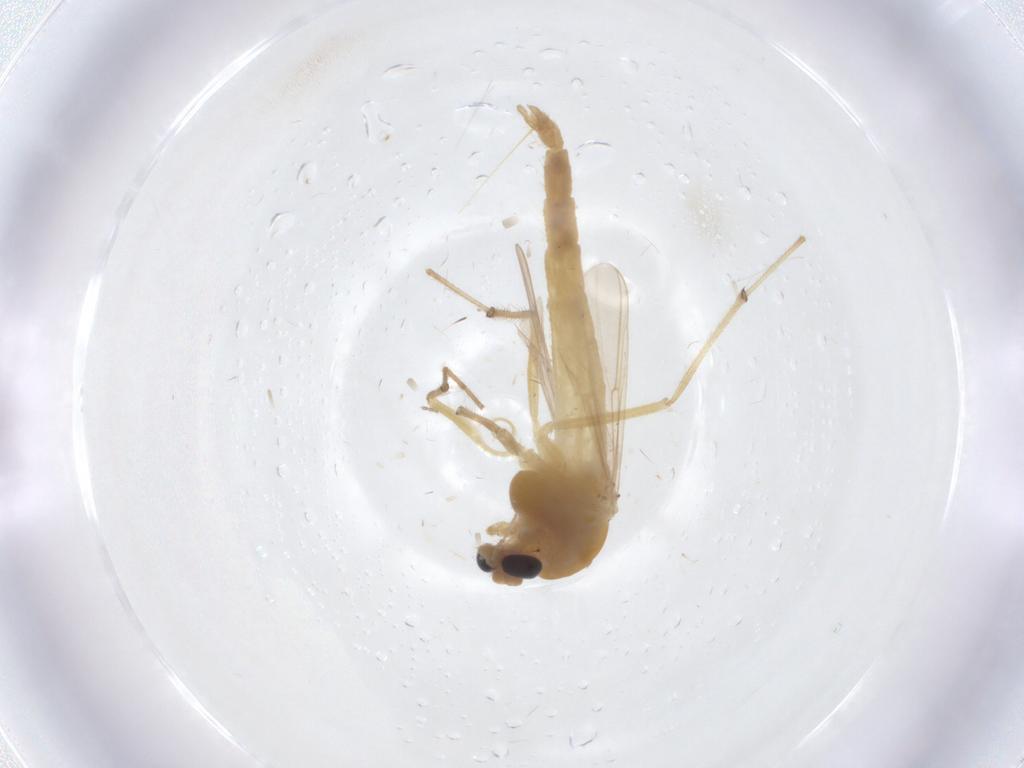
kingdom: Animalia
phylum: Arthropoda
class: Insecta
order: Diptera
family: Chironomidae
